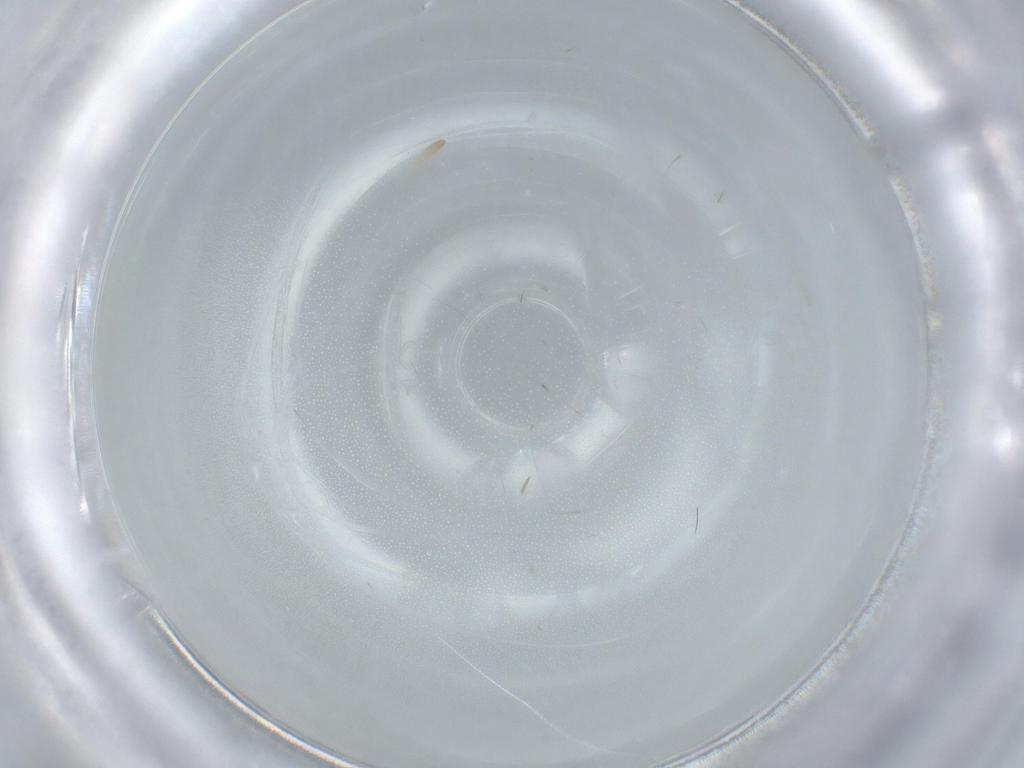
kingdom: Animalia
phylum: Arthropoda
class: Insecta
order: Psocodea
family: Liposcelididae
